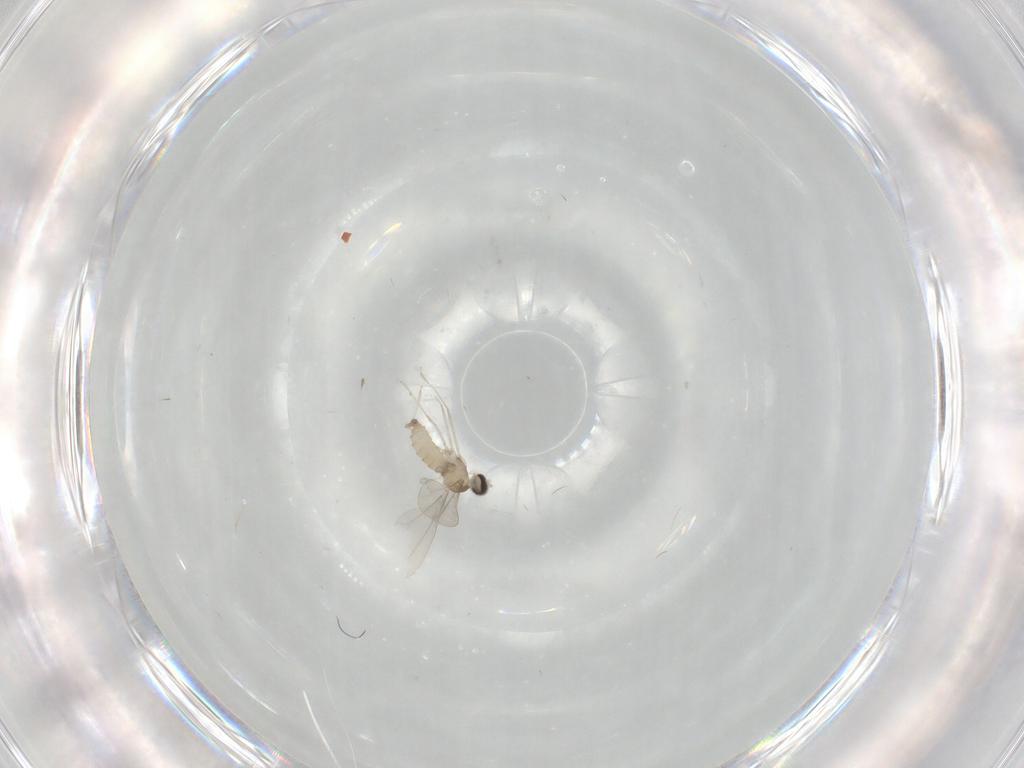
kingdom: Animalia
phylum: Arthropoda
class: Insecta
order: Diptera
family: Cecidomyiidae
